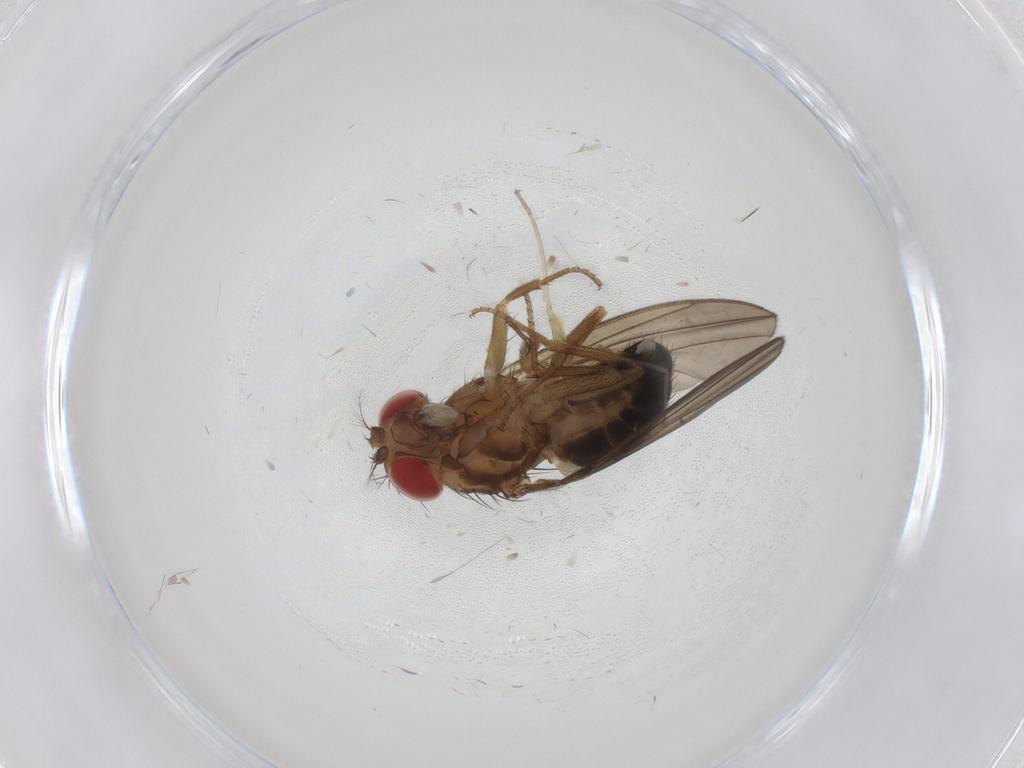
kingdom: Animalia
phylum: Arthropoda
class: Insecta
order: Diptera
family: Drosophilidae
